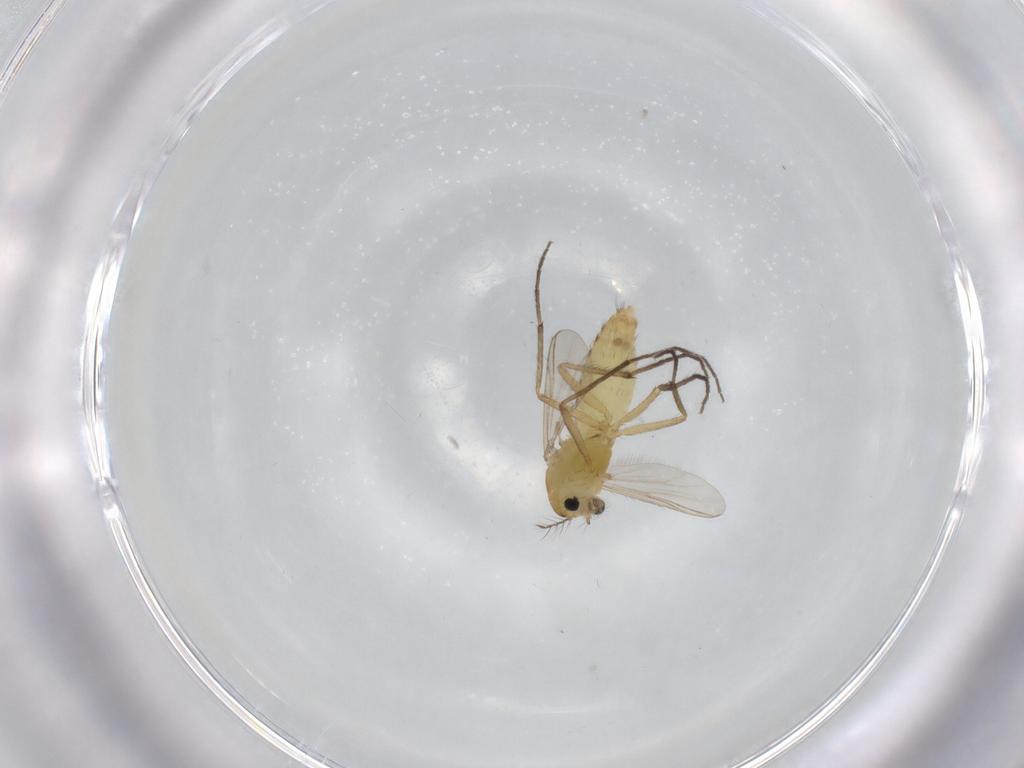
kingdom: Animalia
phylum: Arthropoda
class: Insecta
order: Diptera
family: Chironomidae
